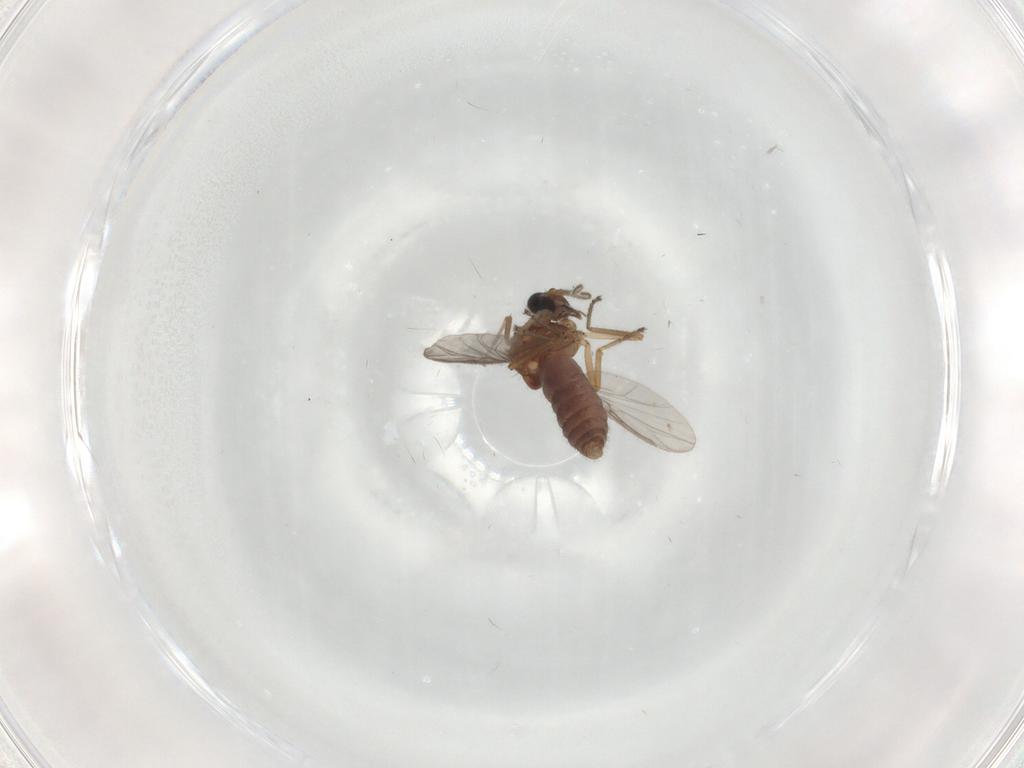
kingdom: Animalia
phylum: Arthropoda
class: Insecta
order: Diptera
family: Ceratopogonidae
